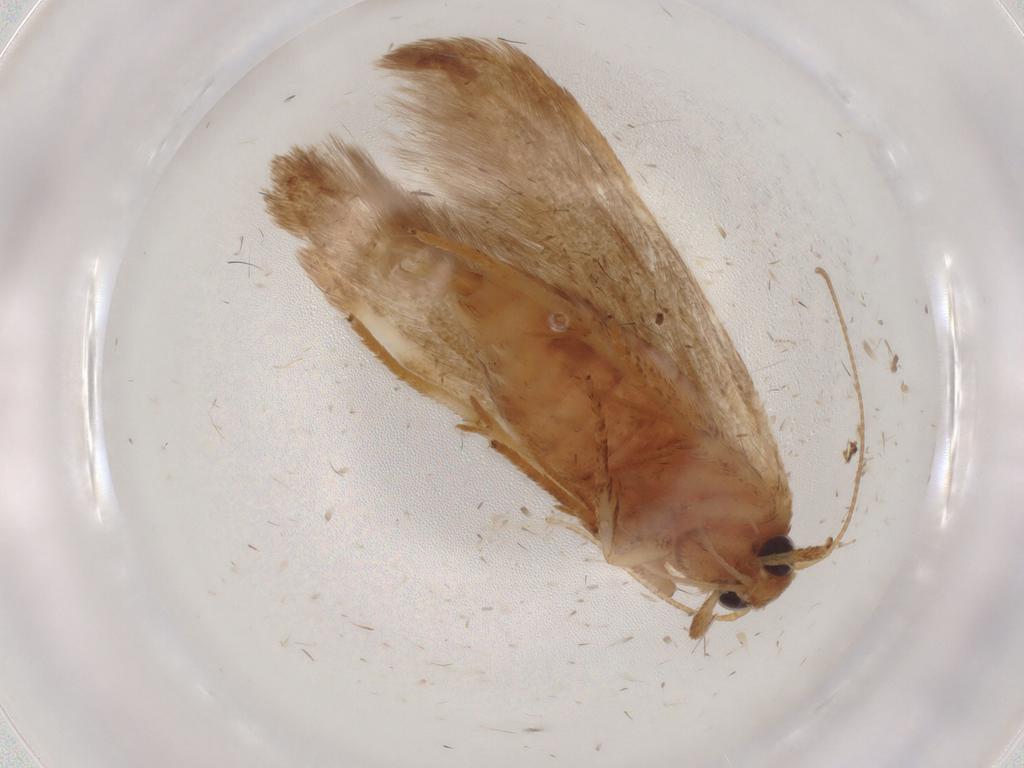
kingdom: Animalia
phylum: Arthropoda
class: Insecta
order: Lepidoptera
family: Blastobasidae
